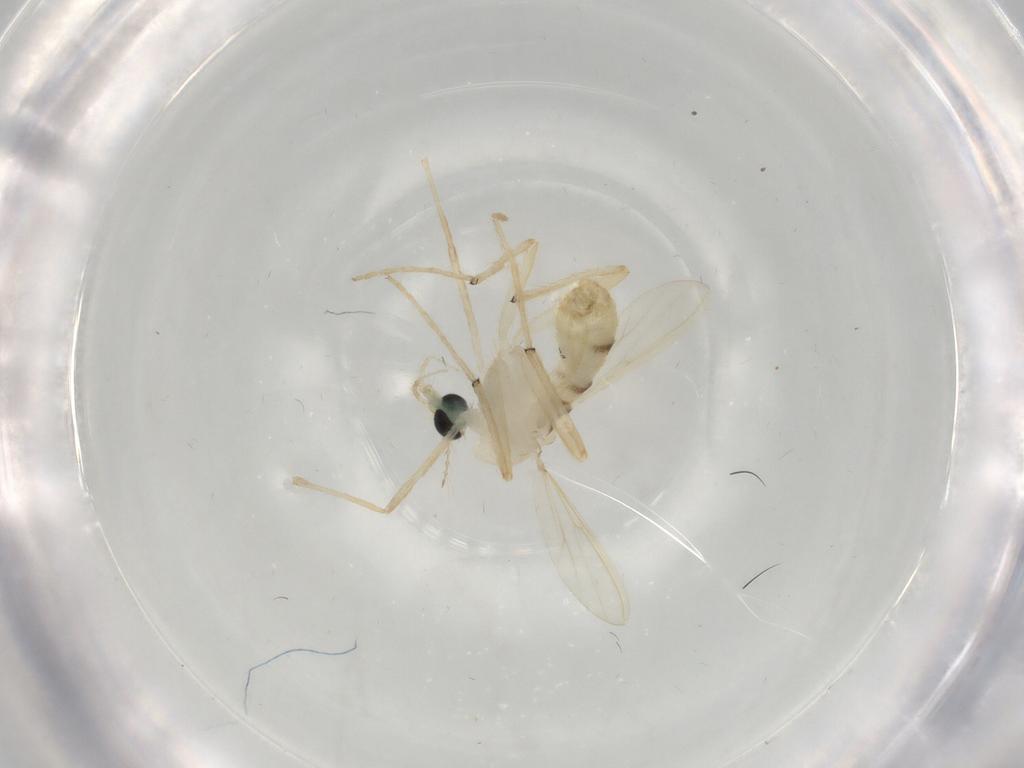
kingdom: Animalia
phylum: Arthropoda
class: Insecta
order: Diptera
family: Chironomidae
